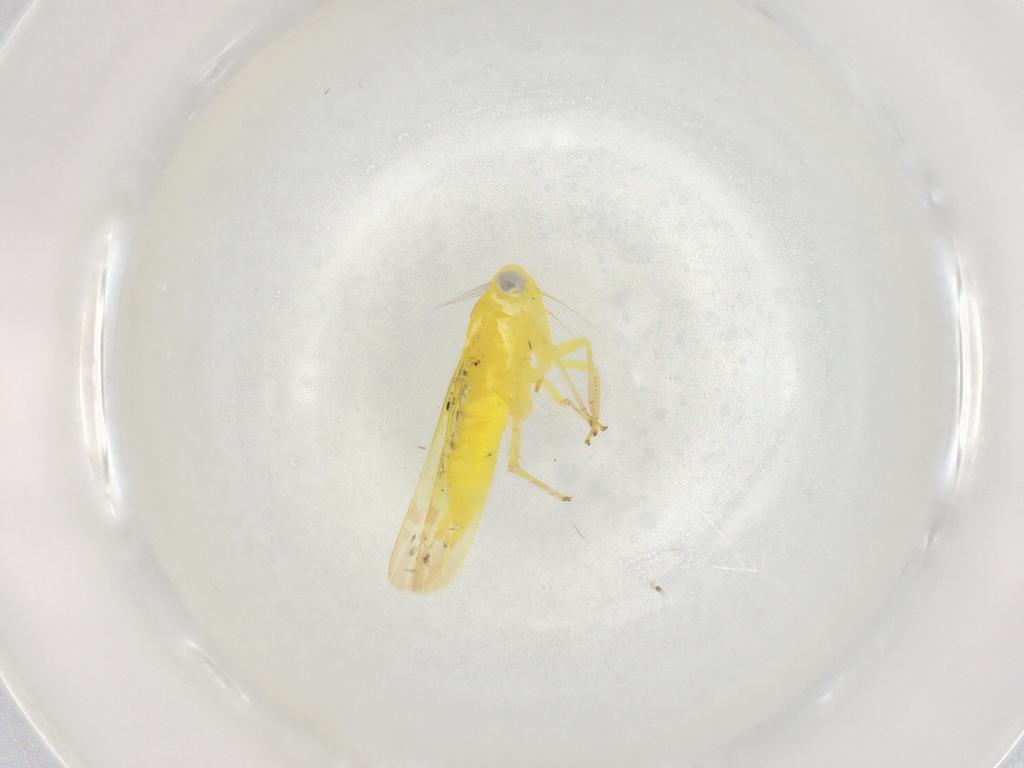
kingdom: Animalia
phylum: Arthropoda
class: Insecta
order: Hemiptera
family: Cicadellidae
